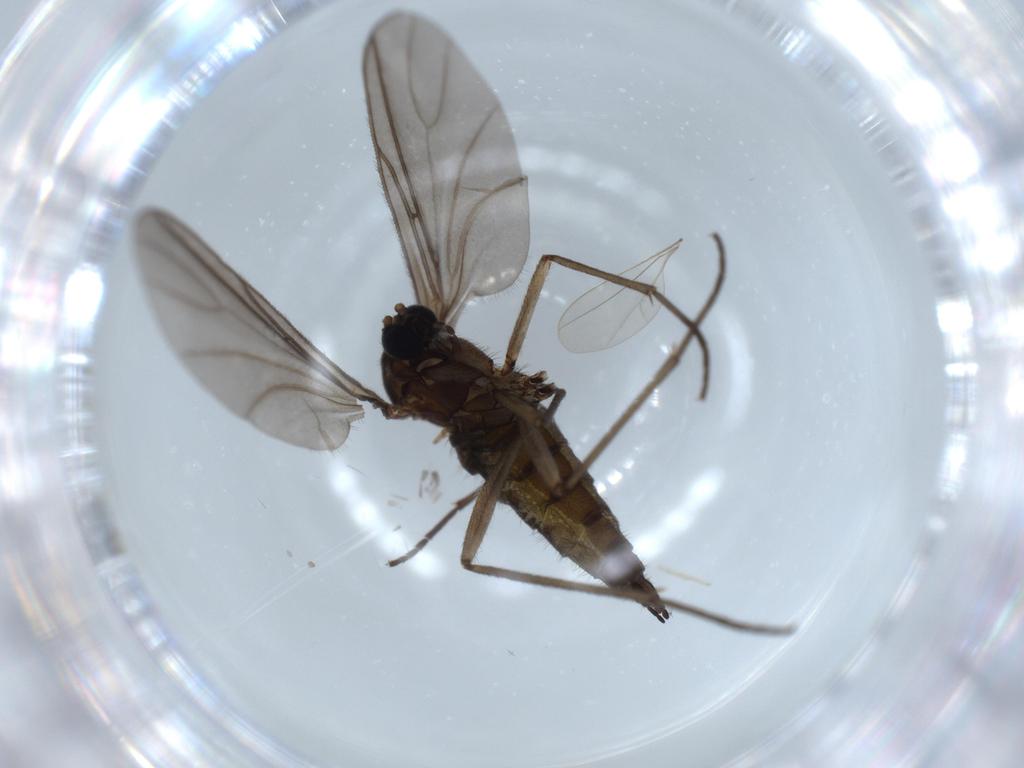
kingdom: Animalia
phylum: Arthropoda
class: Insecta
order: Diptera
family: Sciaridae
